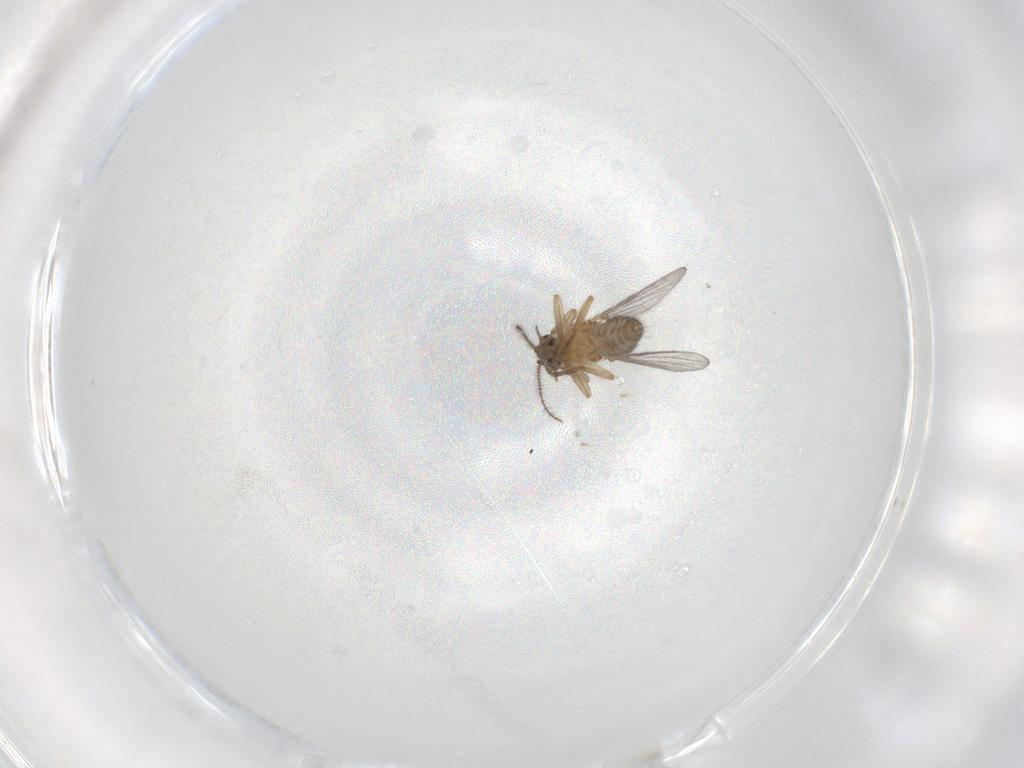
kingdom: Animalia
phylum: Arthropoda
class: Insecta
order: Diptera
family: Ceratopogonidae
